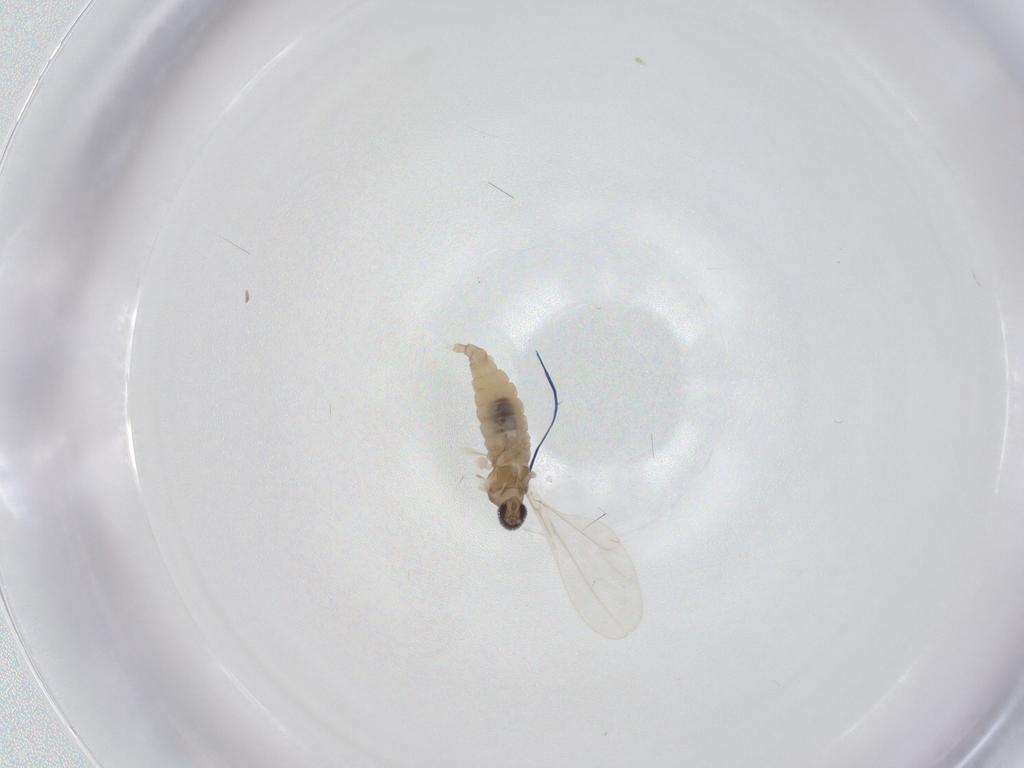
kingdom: Animalia
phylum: Arthropoda
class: Insecta
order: Diptera
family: Cecidomyiidae
